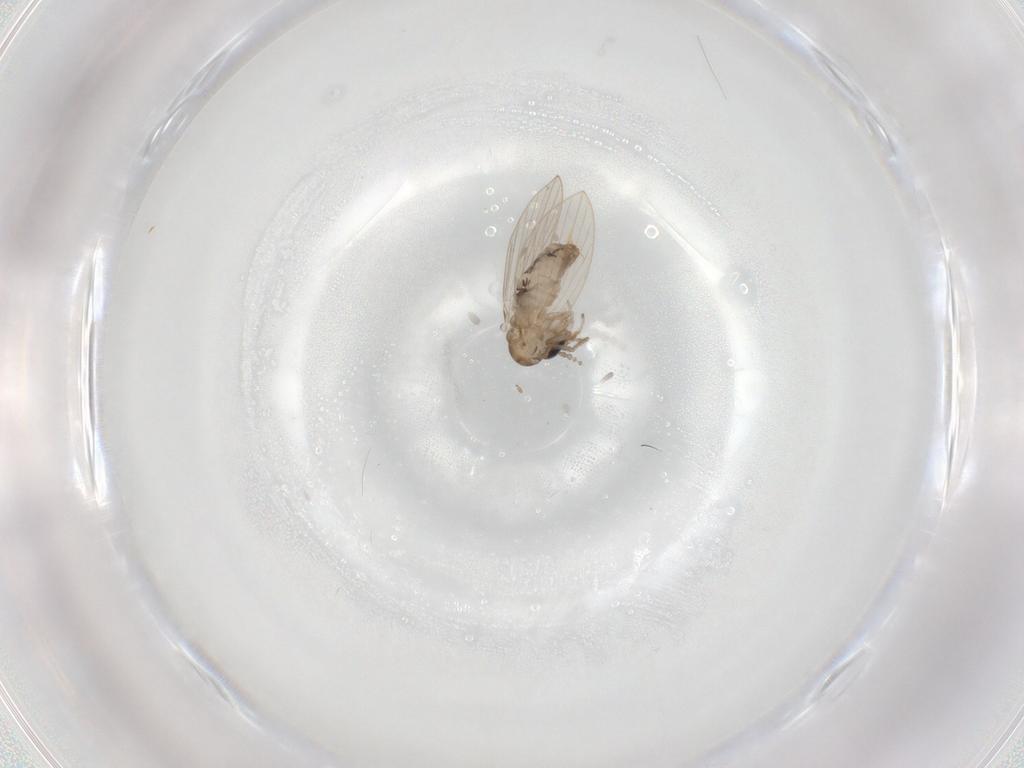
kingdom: Animalia
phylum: Arthropoda
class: Insecta
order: Diptera
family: Psychodidae
